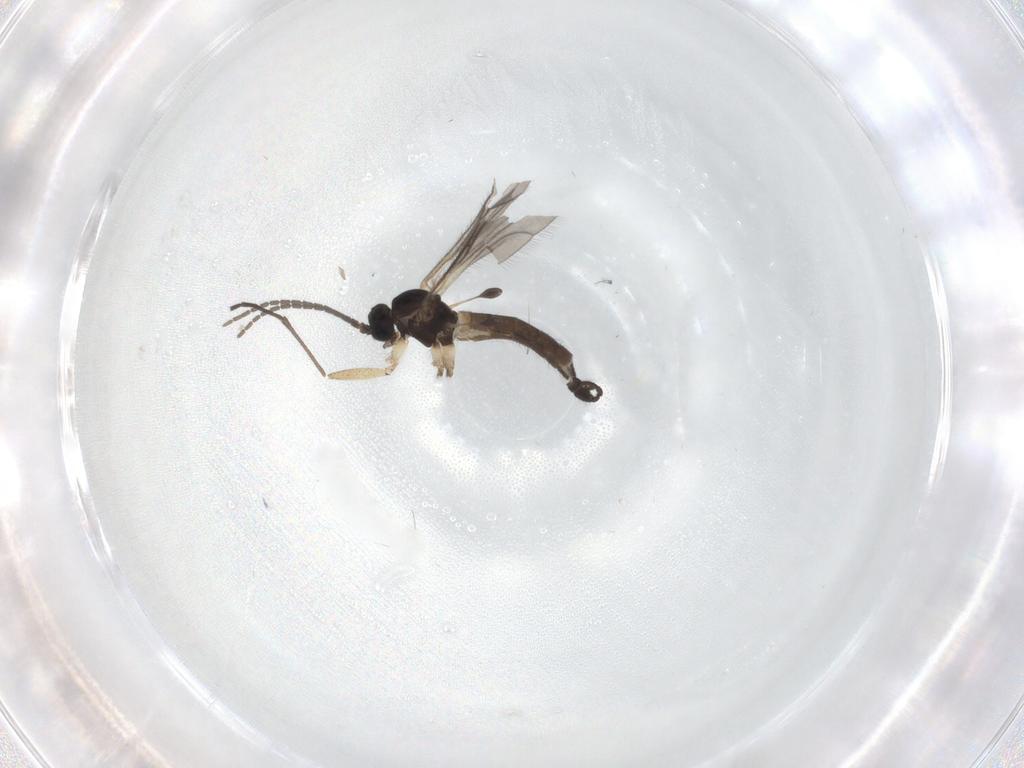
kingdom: Animalia
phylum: Arthropoda
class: Insecta
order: Diptera
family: Sciaridae
